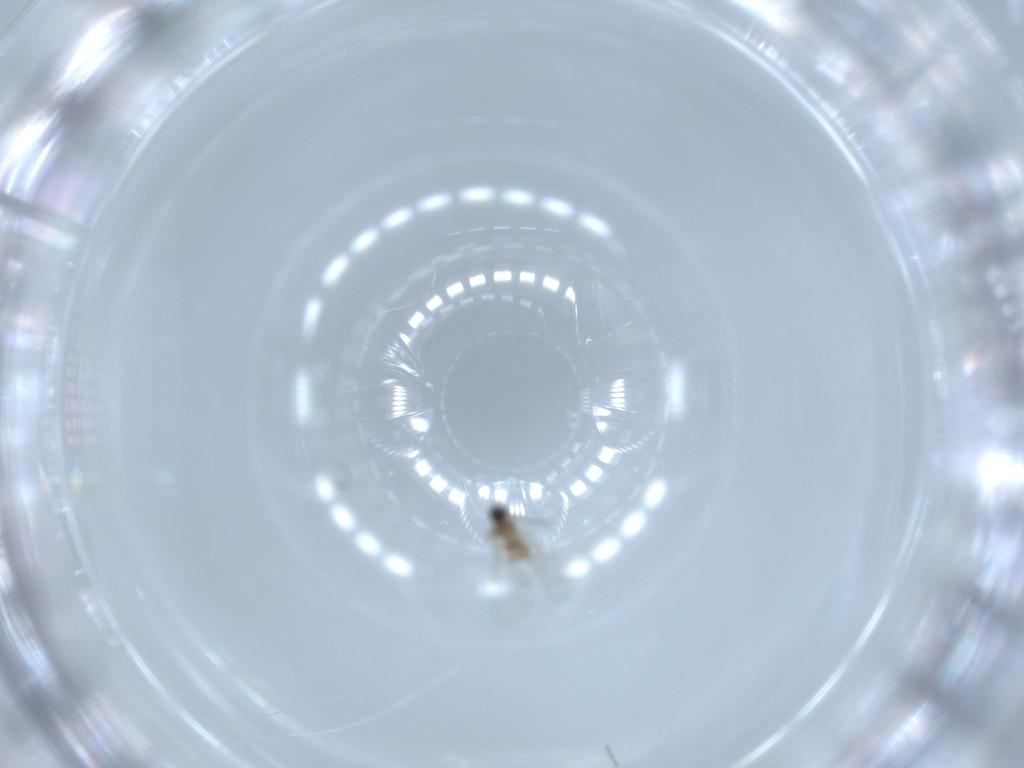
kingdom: Animalia
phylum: Arthropoda
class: Insecta
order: Diptera
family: Cecidomyiidae
